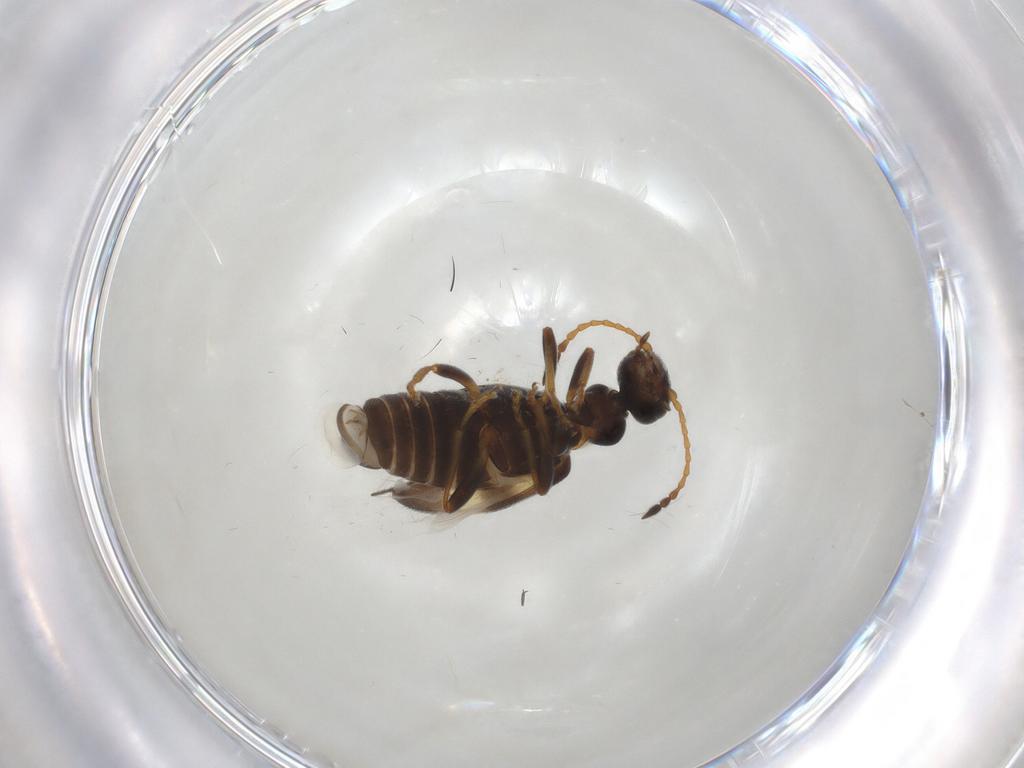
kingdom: Animalia
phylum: Arthropoda
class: Insecta
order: Coleoptera
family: Anthicidae
